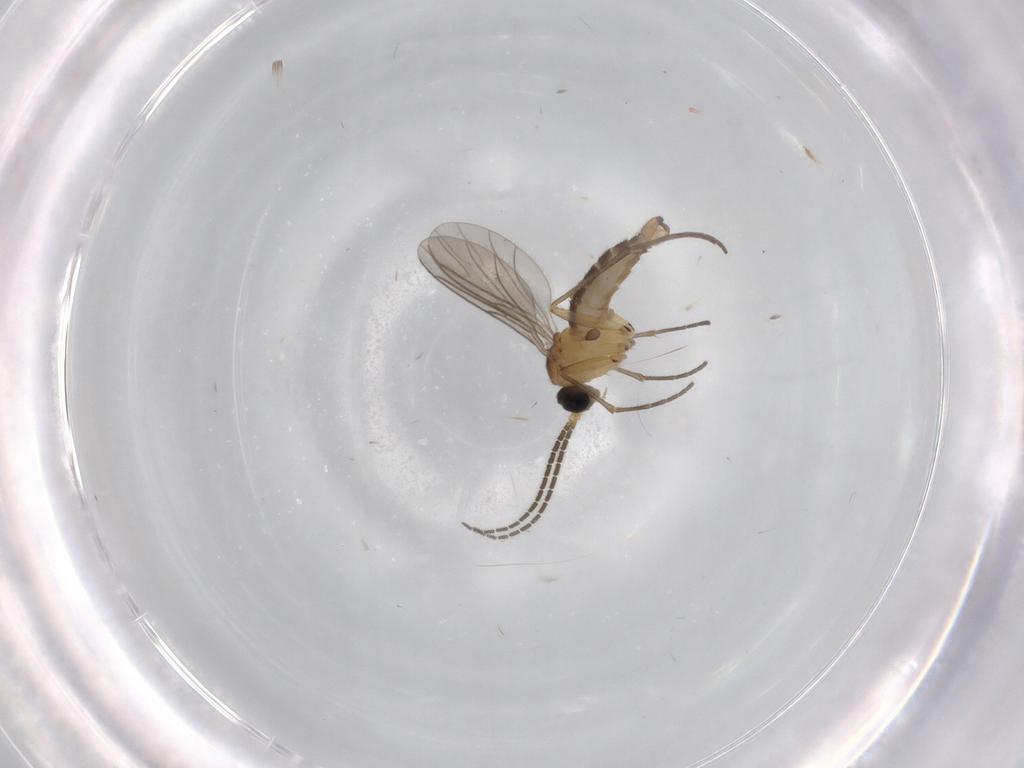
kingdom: Animalia
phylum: Arthropoda
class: Insecta
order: Diptera
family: Sciaridae
